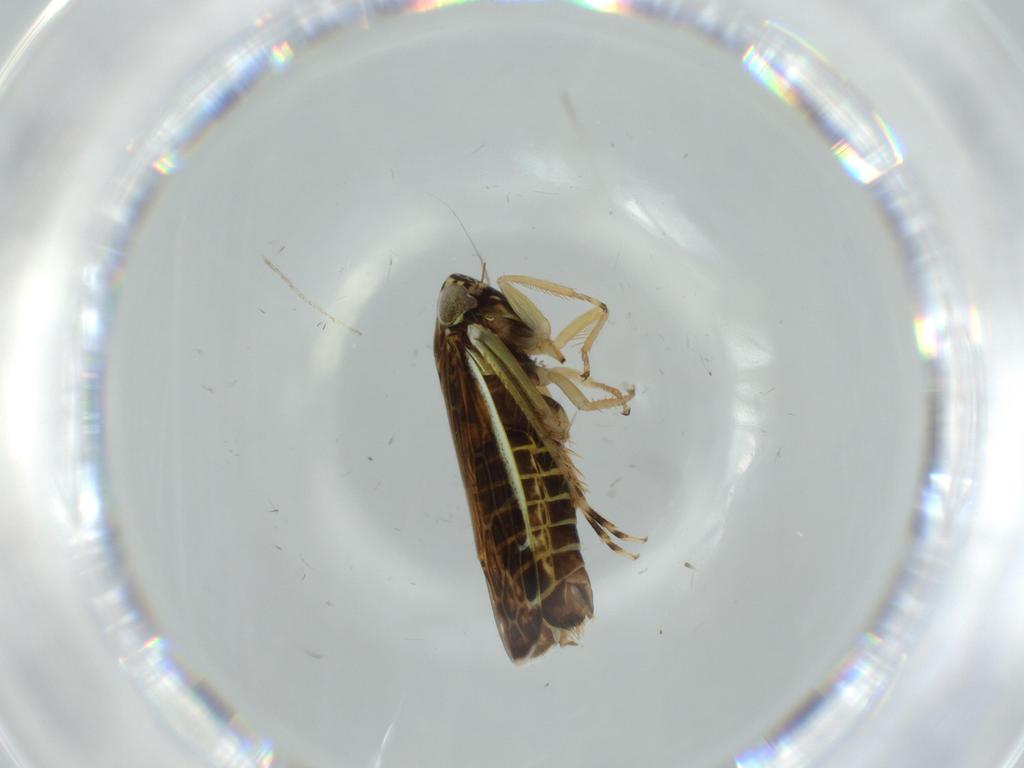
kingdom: Animalia
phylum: Arthropoda
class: Insecta
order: Hemiptera
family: Cicadellidae
